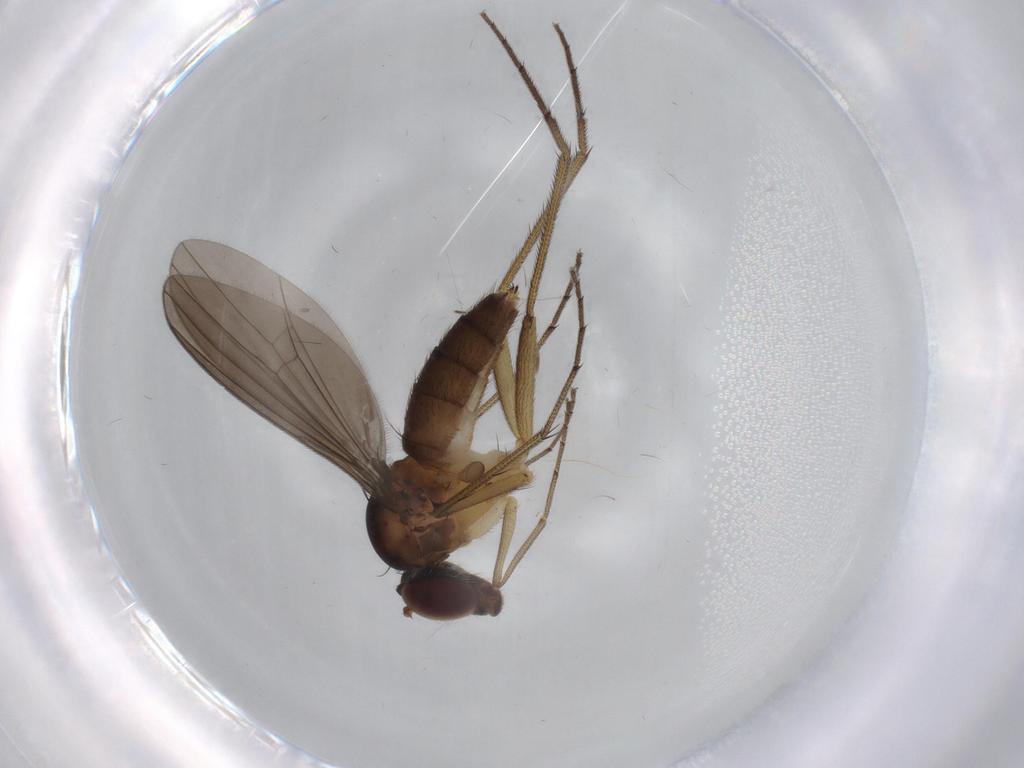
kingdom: Animalia
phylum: Arthropoda
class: Insecta
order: Diptera
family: Dolichopodidae
